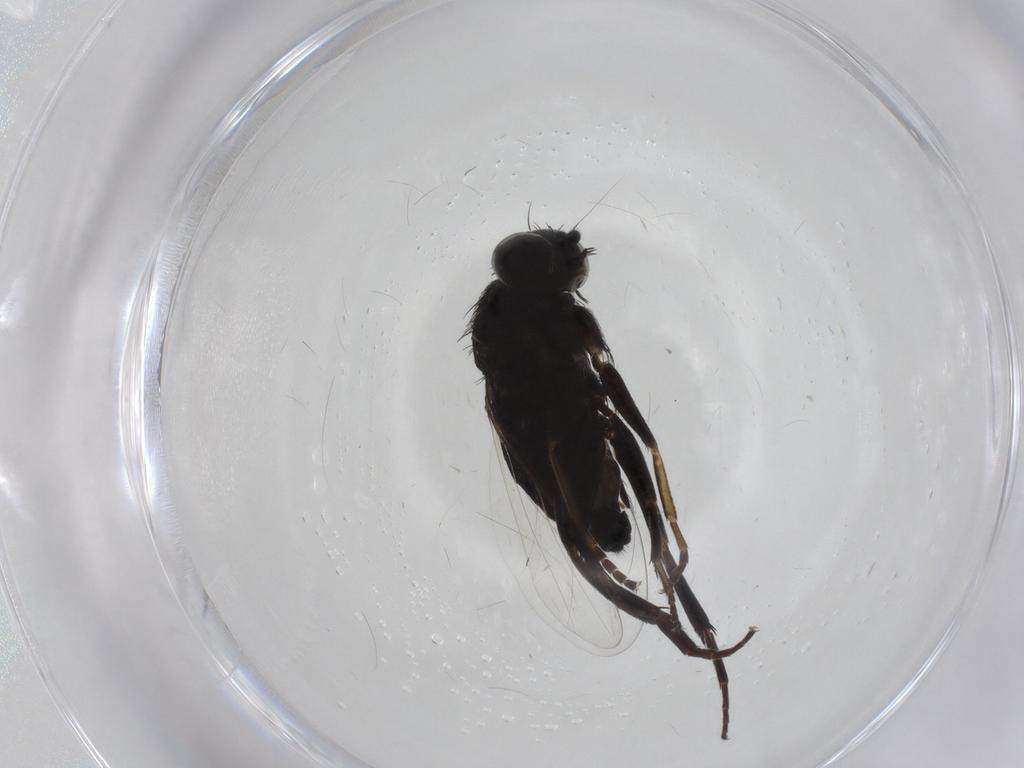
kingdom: Animalia
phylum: Arthropoda
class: Insecta
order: Diptera
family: Phoridae
